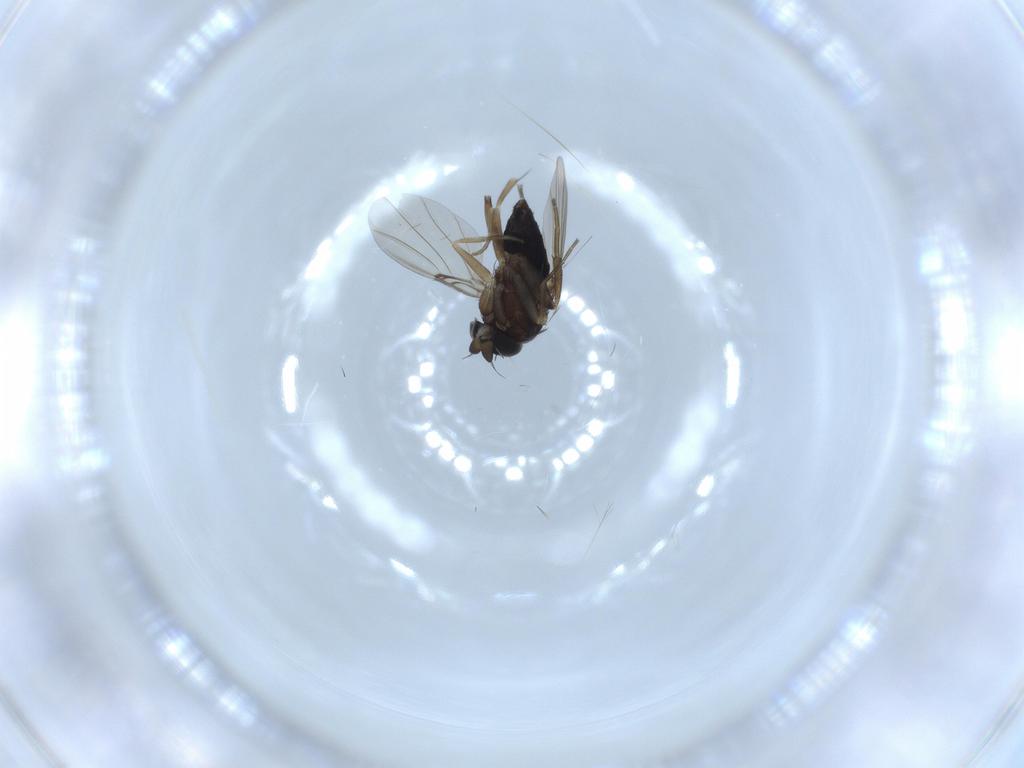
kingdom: Animalia
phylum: Arthropoda
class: Insecta
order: Diptera
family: Phoridae
